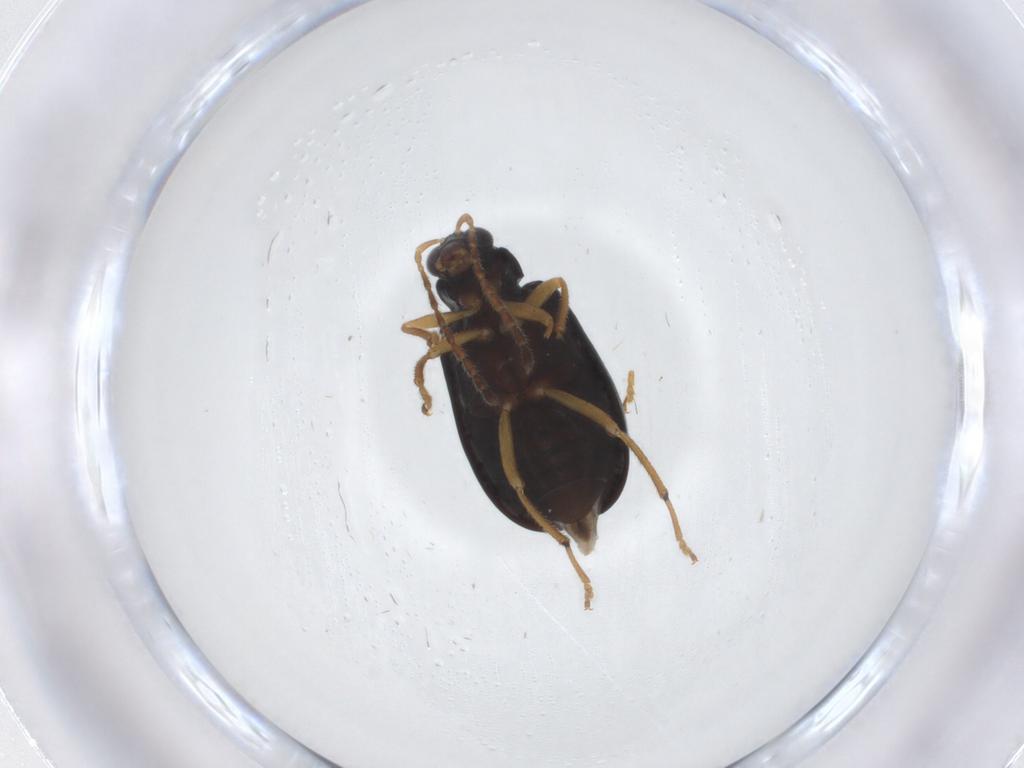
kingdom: Animalia
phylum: Arthropoda
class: Insecta
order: Coleoptera
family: Chrysomelidae
